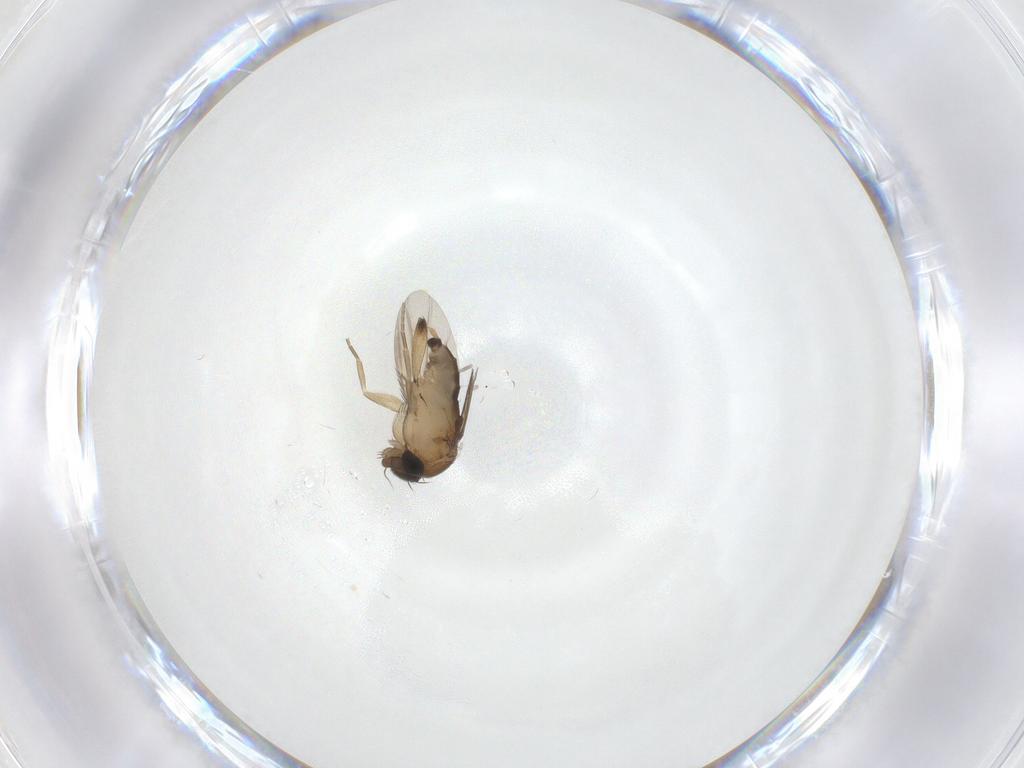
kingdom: Animalia
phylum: Arthropoda
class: Insecta
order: Diptera
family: Phoridae
